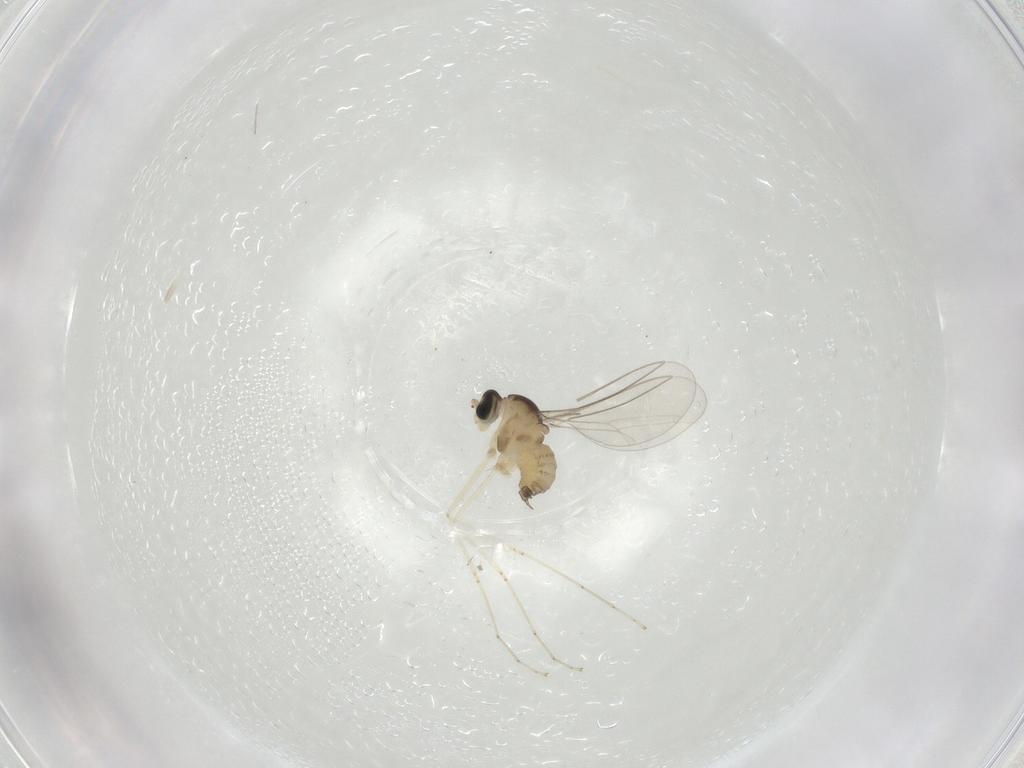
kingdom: Animalia
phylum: Arthropoda
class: Insecta
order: Diptera
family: Cecidomyiidae
